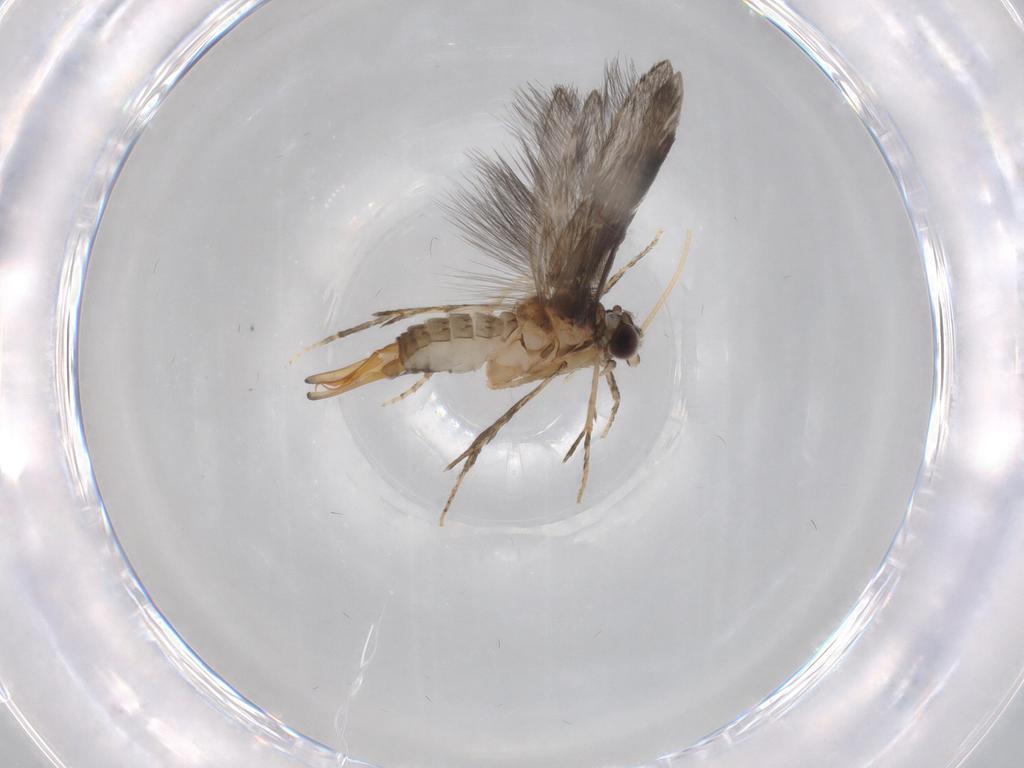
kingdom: Animalia
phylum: Arthropoda
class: Insecta
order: Trichoptera
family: Hydroptilidae
